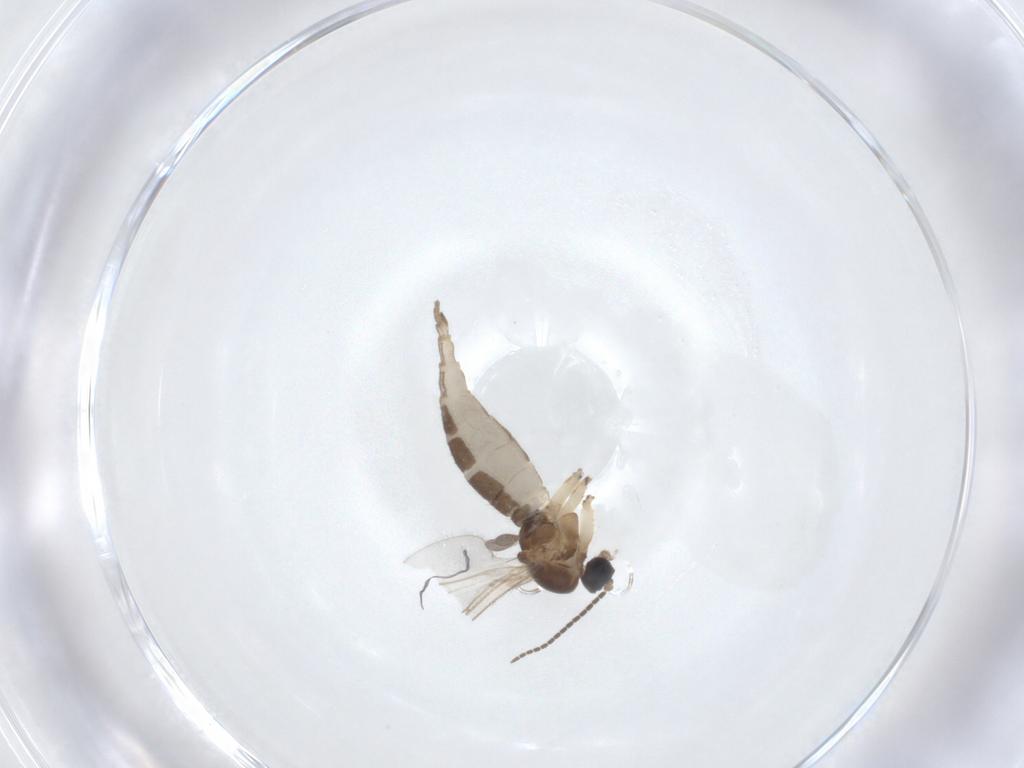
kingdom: Animalia
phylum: Arthropoda
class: Insecta
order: Diptera
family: Sciaridae
